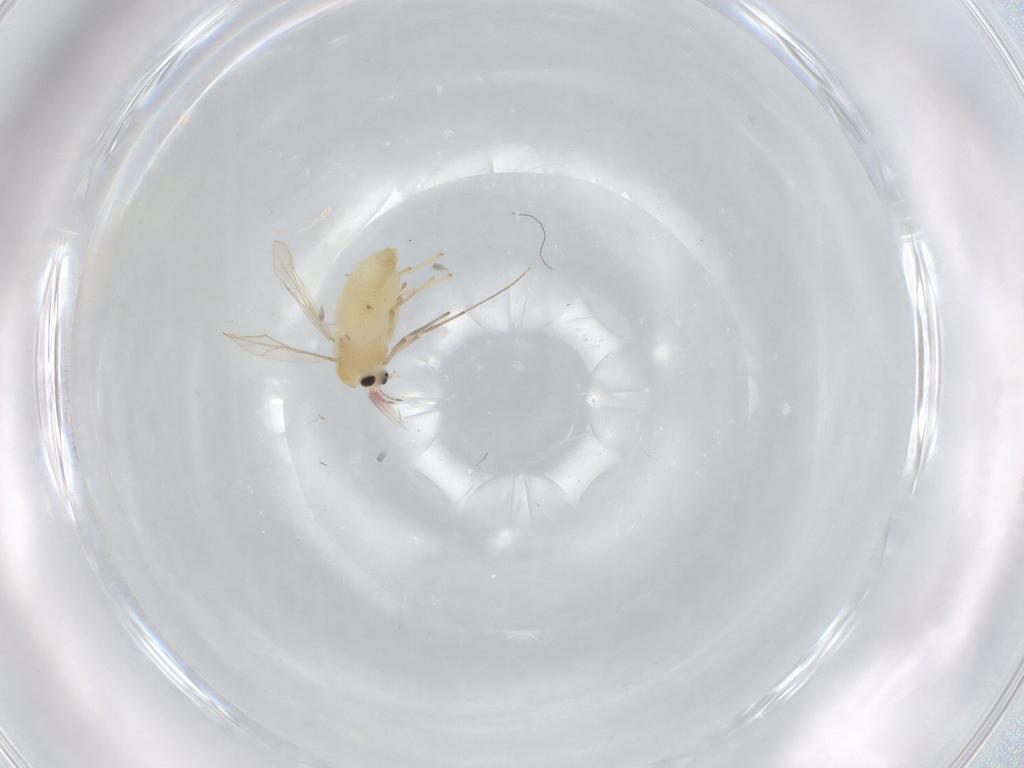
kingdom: Animalia
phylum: Arthropoda
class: Insecta
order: Diptera
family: Chironomidae
